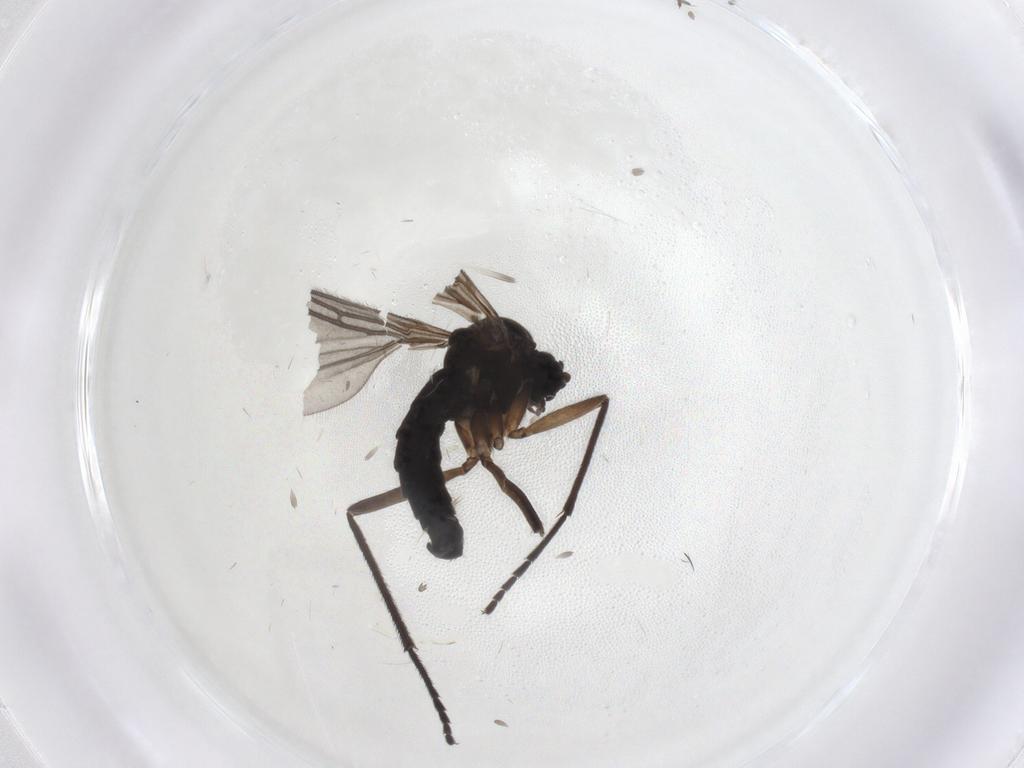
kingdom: Animalia
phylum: Arthropoda
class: Insecta
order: Diptera
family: Sciaridae
